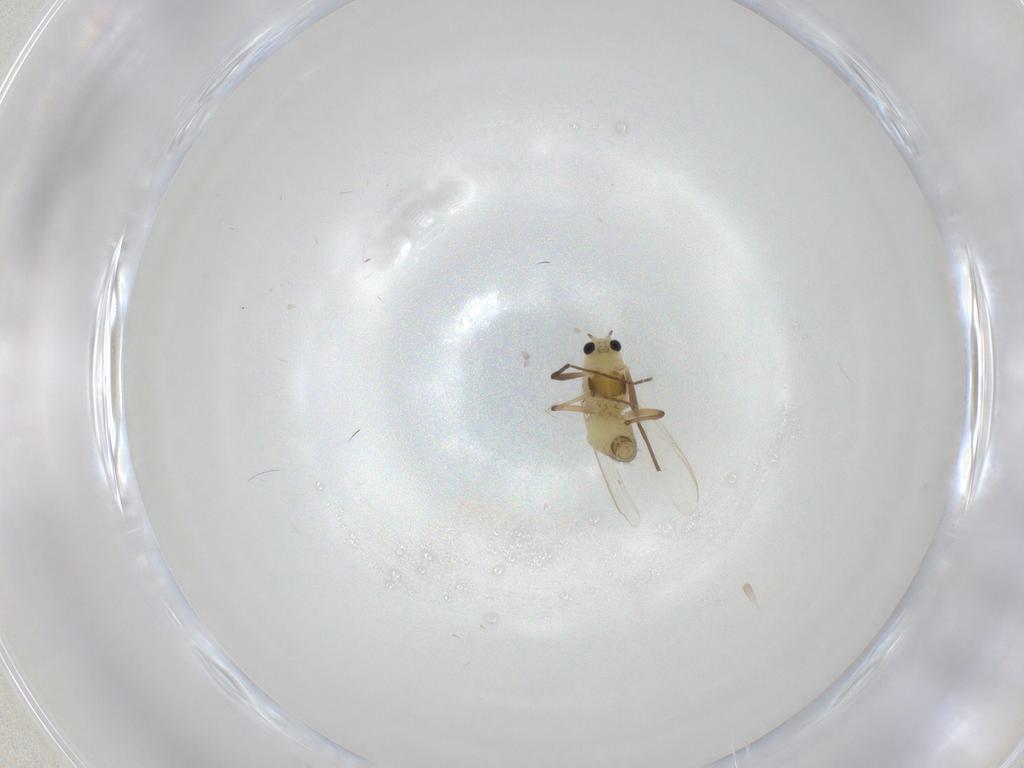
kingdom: Animalia
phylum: Arthropoda
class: Insecta
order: Diptera
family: Chironomidae
